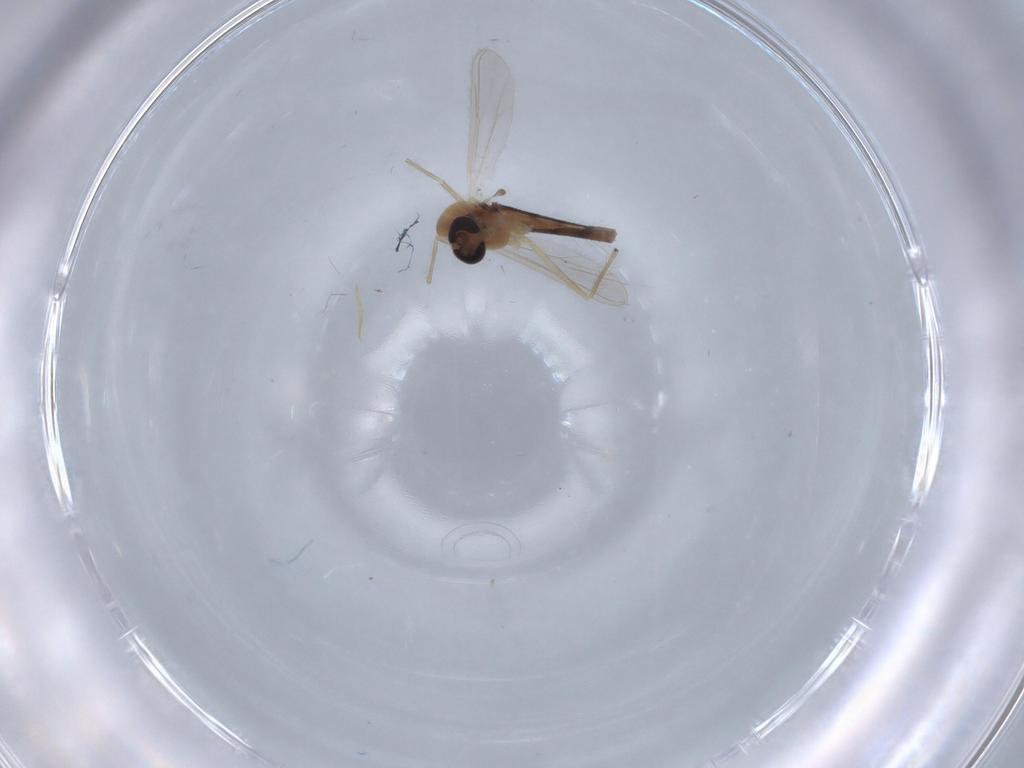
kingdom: Animalia
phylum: Arthropoda
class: Insecta
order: Diptera
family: Chironomidae
